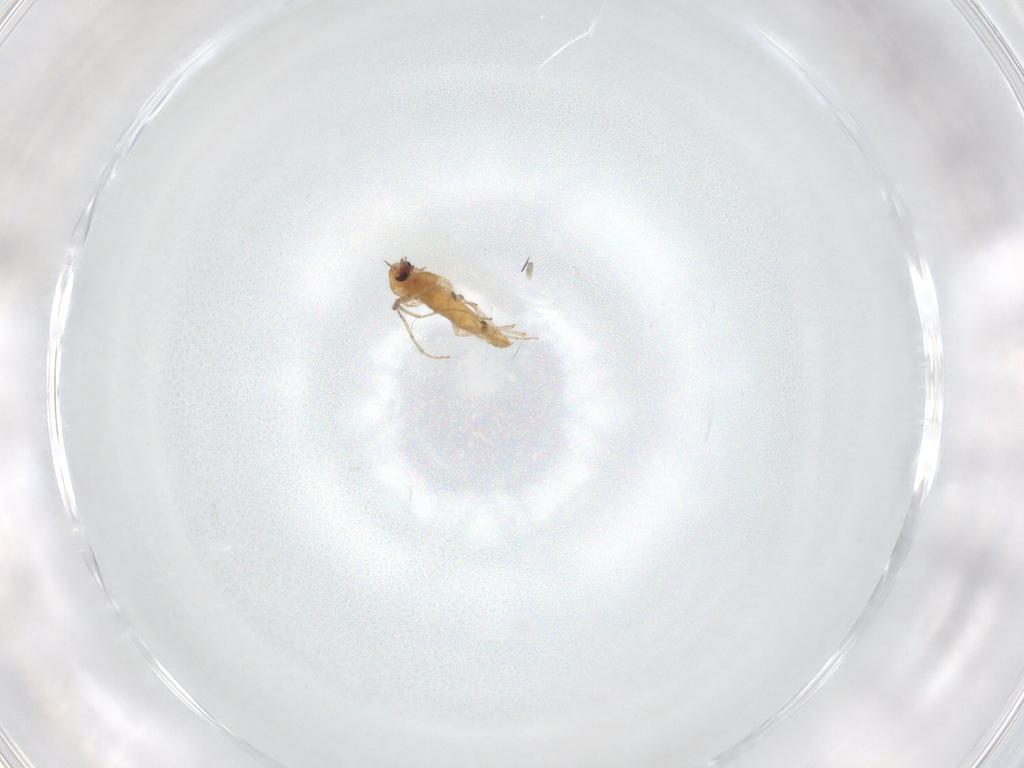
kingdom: Animalia
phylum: Arthropoda
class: Insecta
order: Diptera
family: Chironomidae
